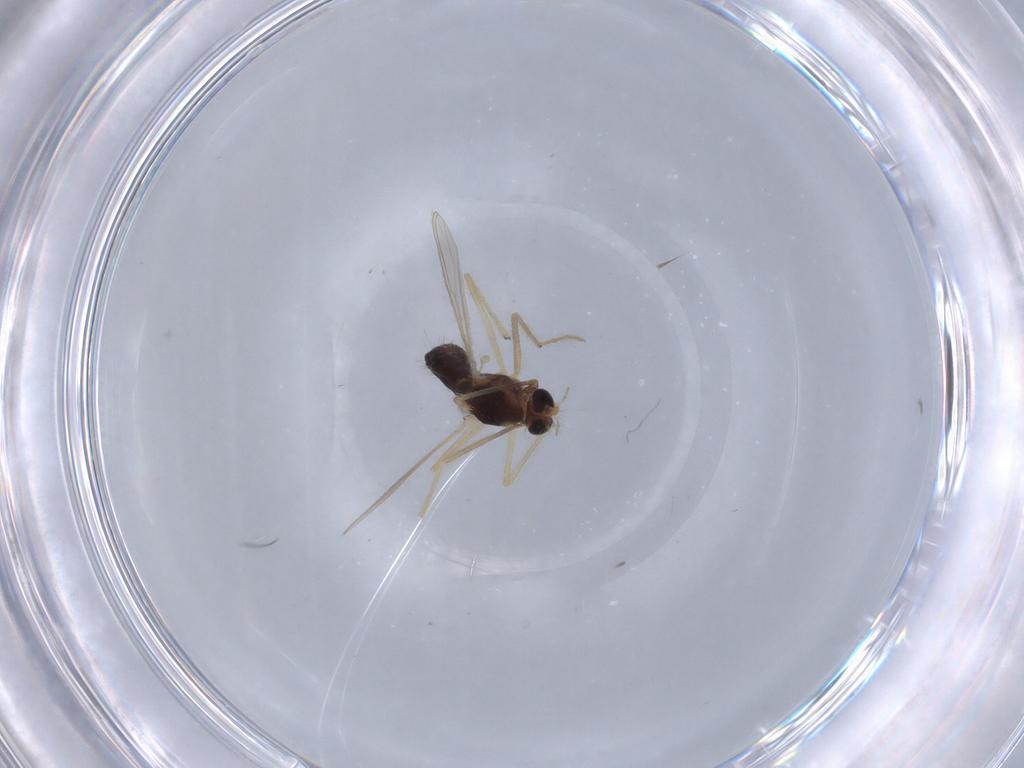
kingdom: Animalia
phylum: Arthropoda
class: Insecta
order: Diptera
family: Chironomidae
